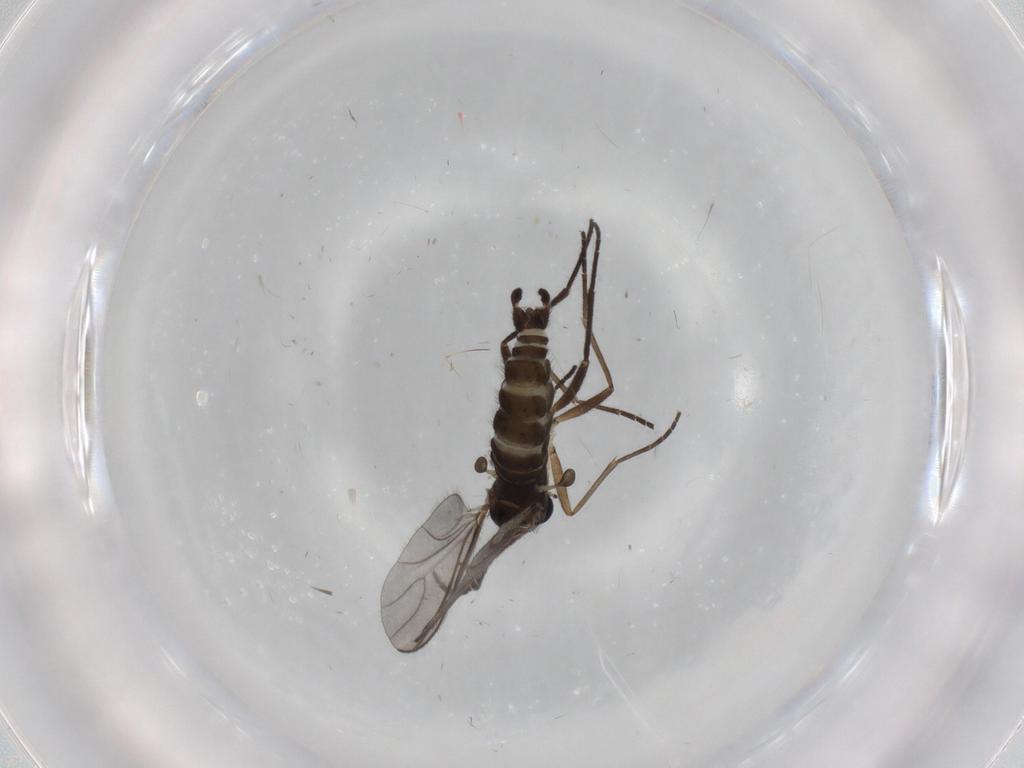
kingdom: Animalia
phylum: Arthropoda
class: Insecta
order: Diptera
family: Sciaridae
